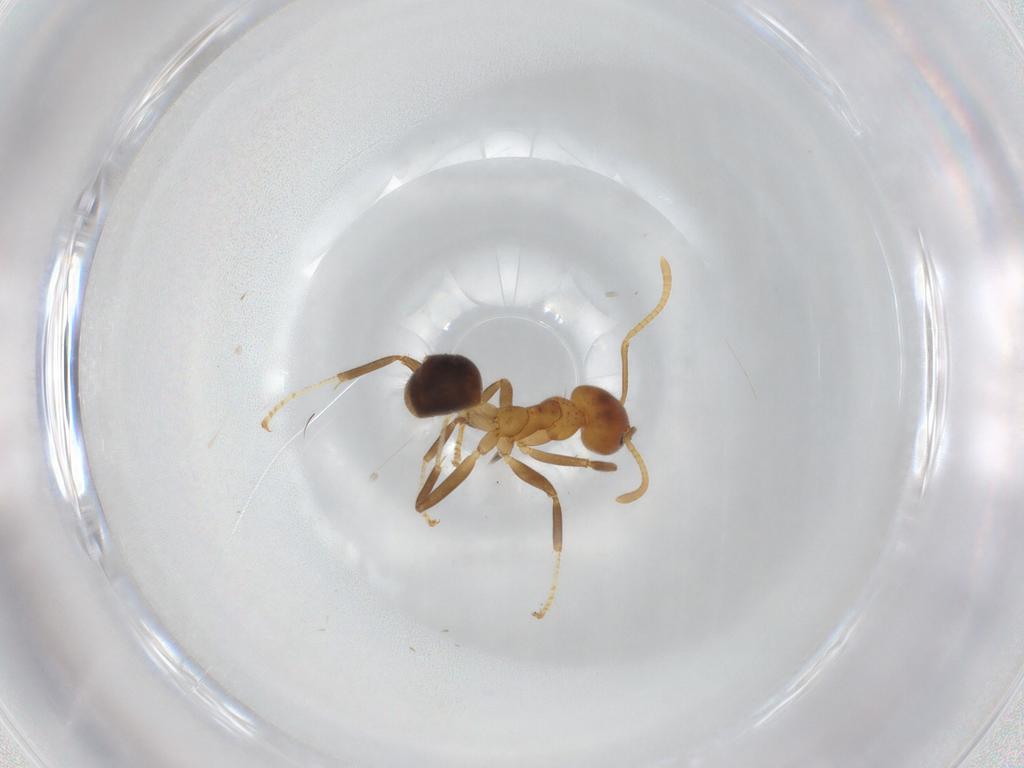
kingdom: Animalia
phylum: Arthropoda
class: Insecta
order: Hymenoptera
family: Formicidae
